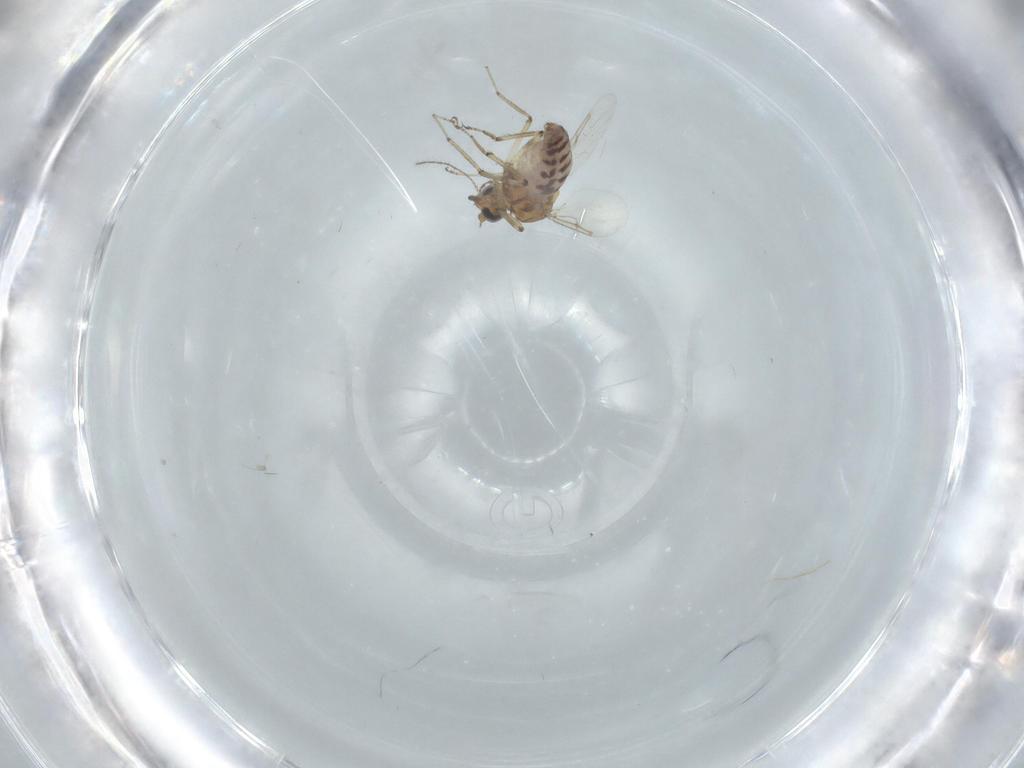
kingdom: Animalia
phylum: Arthropoda
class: Insecta
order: Diptera
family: Ceratopogonidae
